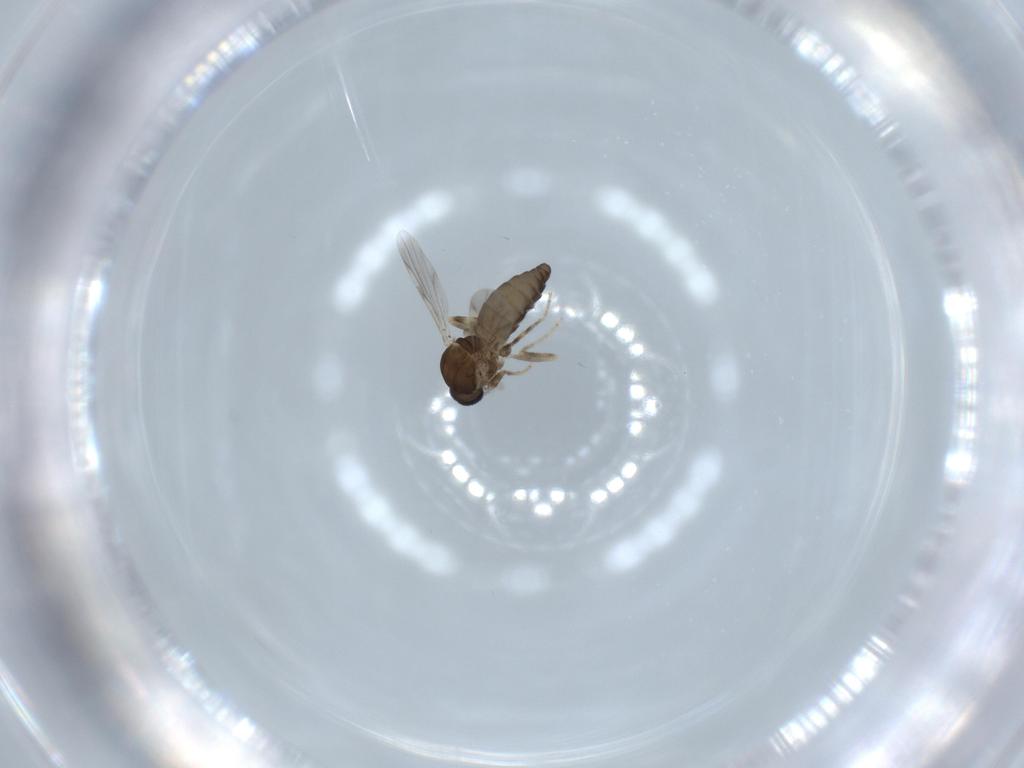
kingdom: Animalia
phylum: Arthropoda
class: Insecta
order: Diptera
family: Ceratopogonidae
